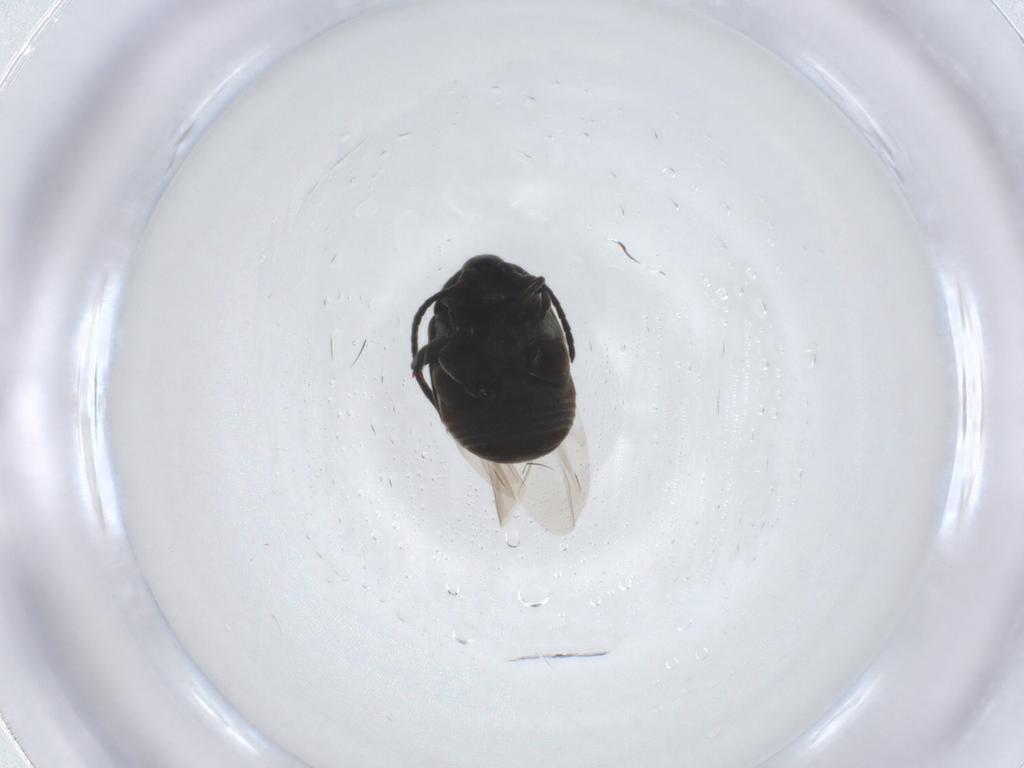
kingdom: Animalia
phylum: Arthropoda
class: Insecta
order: Coleoptera
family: Chrysomelidae
